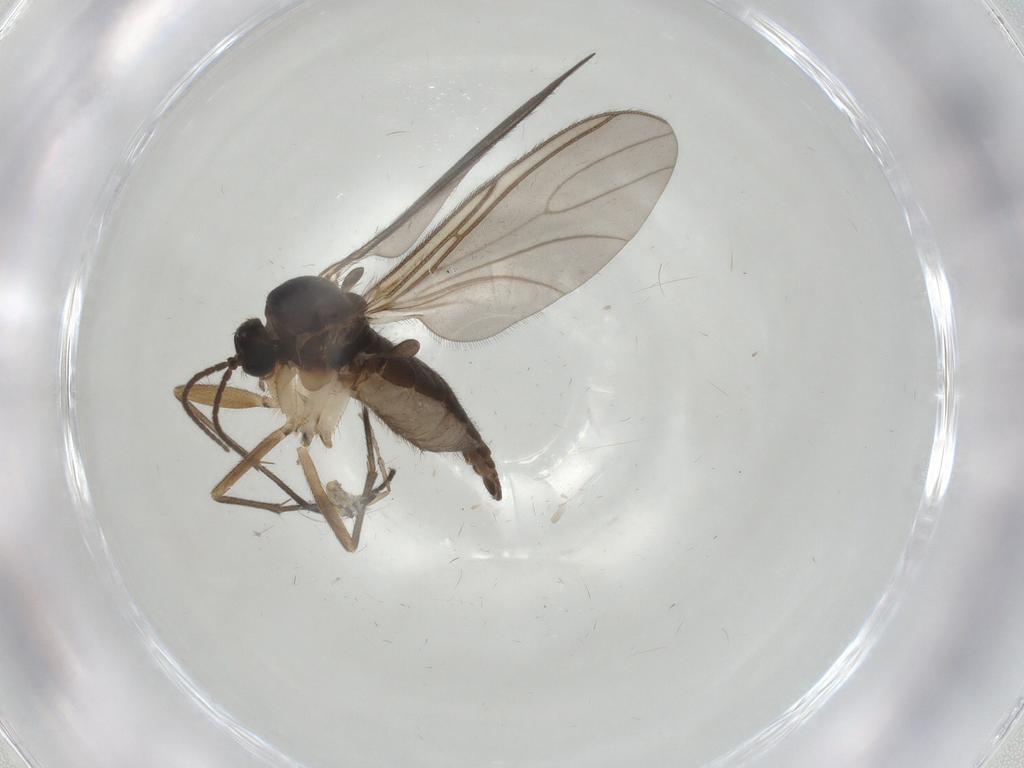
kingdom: Animalia
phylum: Arthropoda
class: Insecta
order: Diptera
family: Sciaridae
